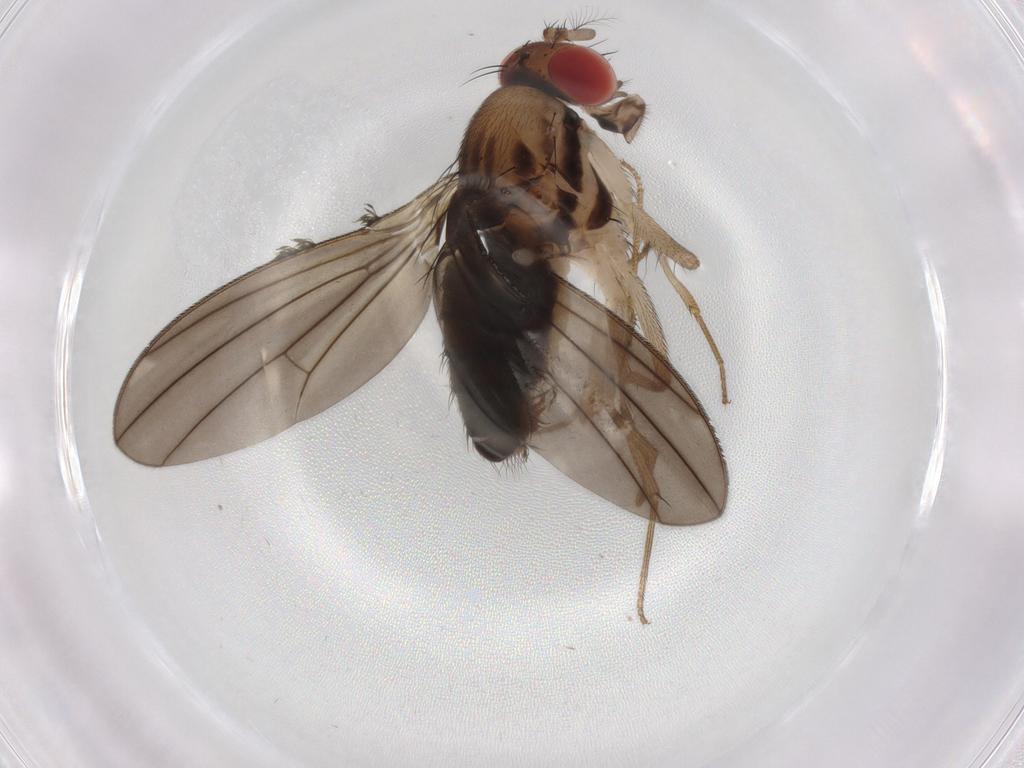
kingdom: Animalia
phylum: Arthropoda
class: Insecta
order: Diptera
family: Drosophilidae
